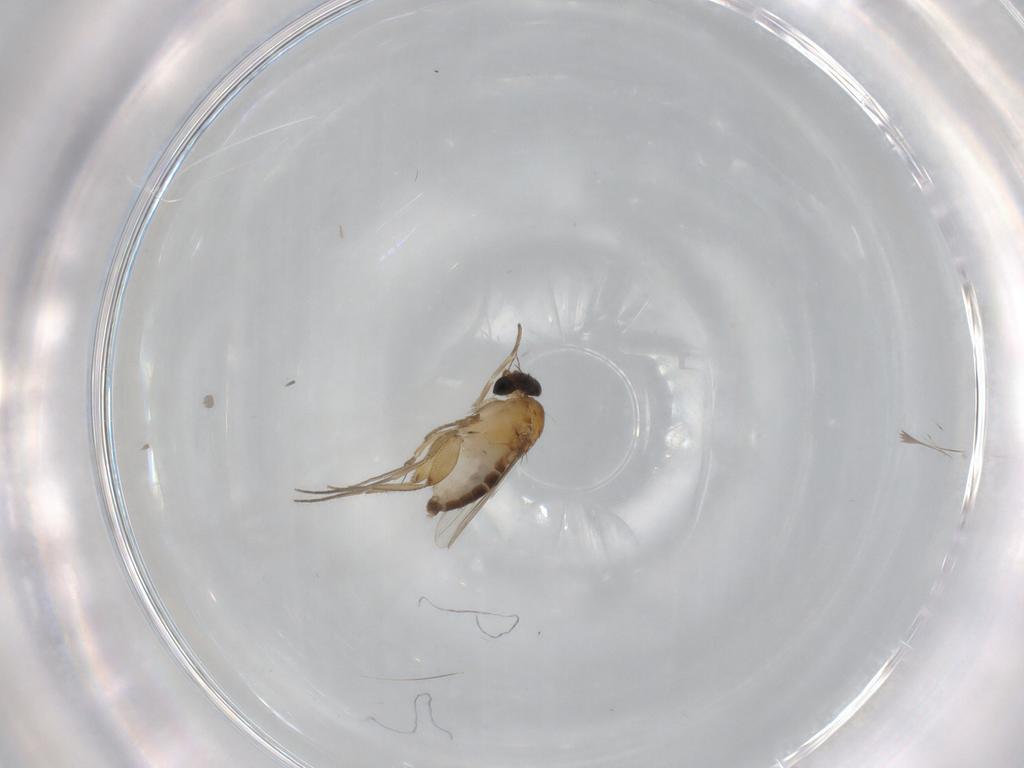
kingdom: Animalia
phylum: Arthropoda
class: Insecta
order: Diptera
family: Phoridae
